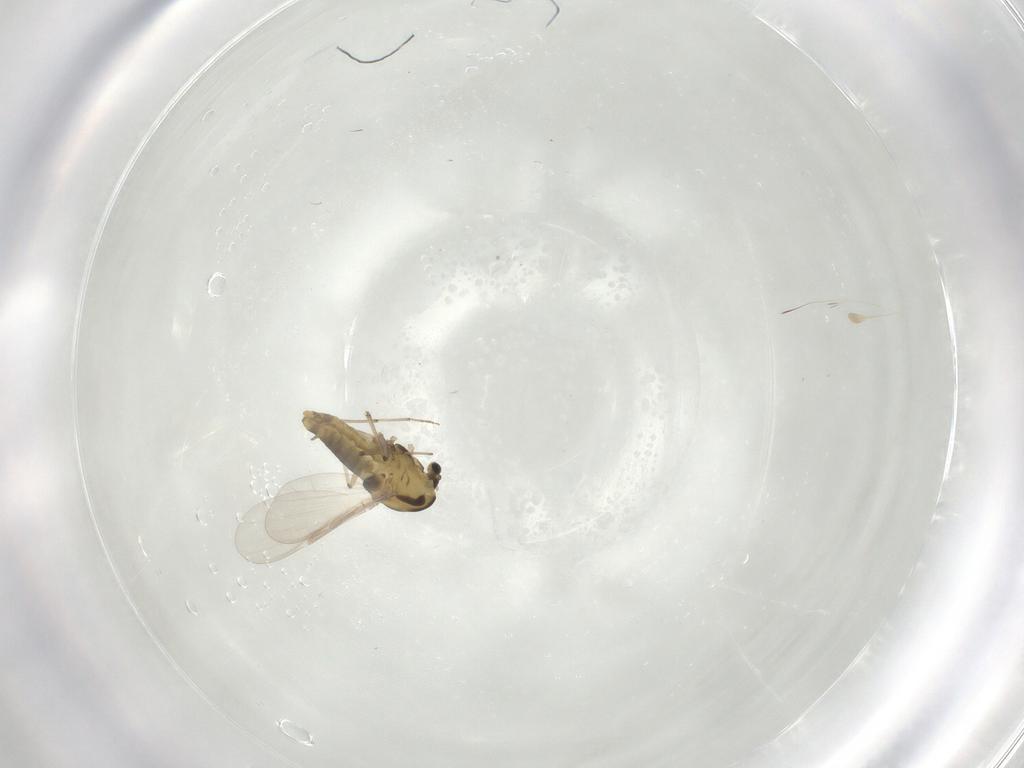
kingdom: Animalia
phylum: Arthropoda
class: Insecta
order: Diptera
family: Chironomidae
